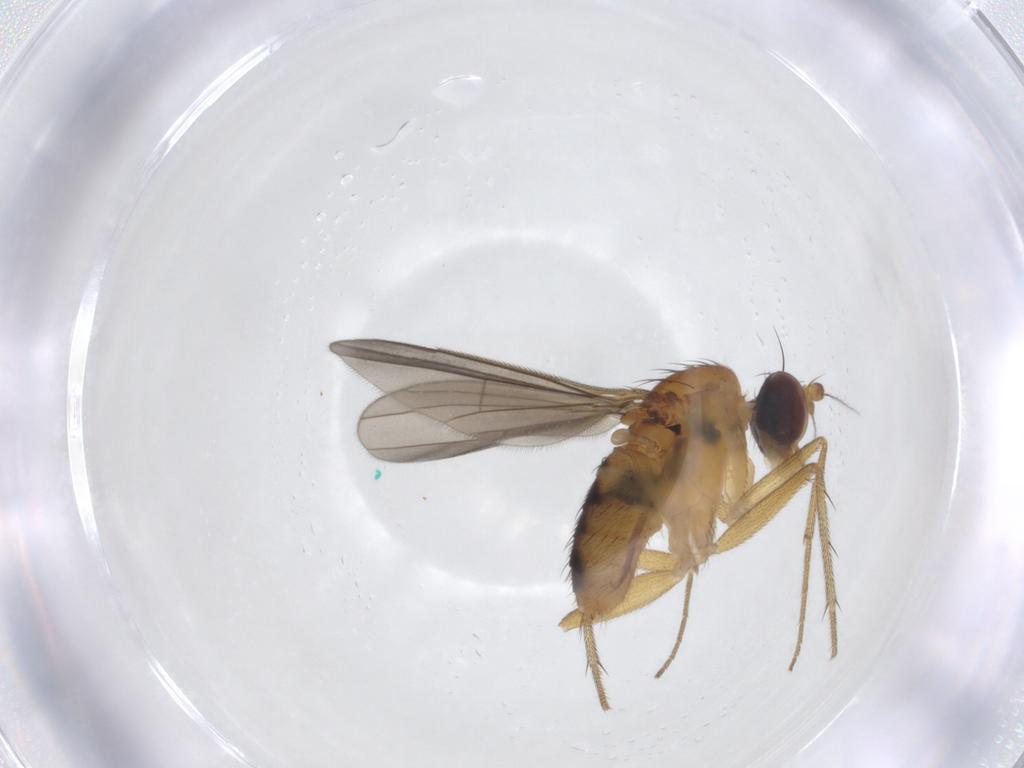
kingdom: Animalia
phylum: Arthropoda
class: Insecta
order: Diptera
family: Dolichopodidae
